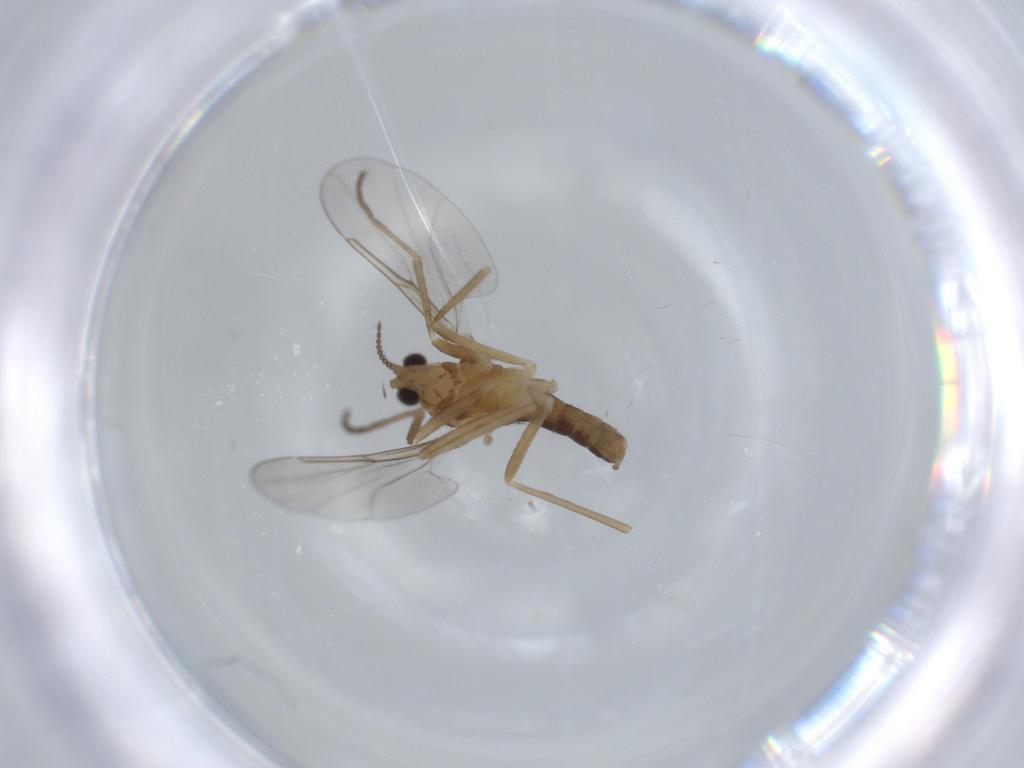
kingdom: Animalia
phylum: Arthropoda
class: Insecta
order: Diptera
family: Cecidomyiidae
